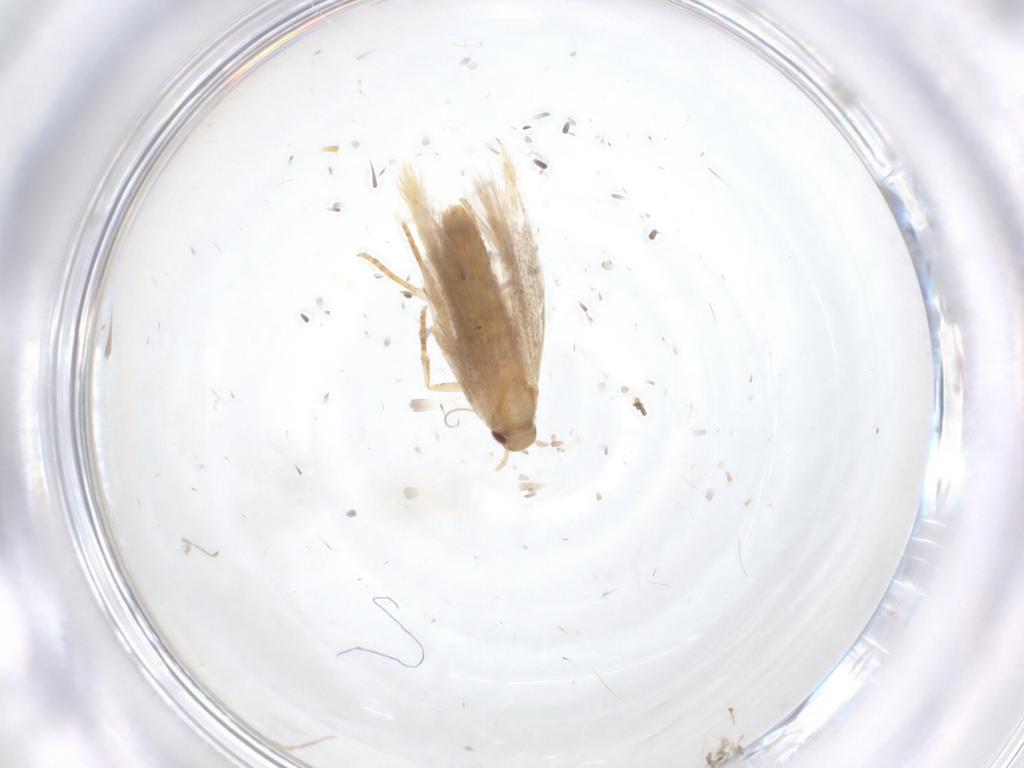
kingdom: Animalia
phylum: Arthropoda
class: Insecta
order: Lepidoptera
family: Gelechiidae
